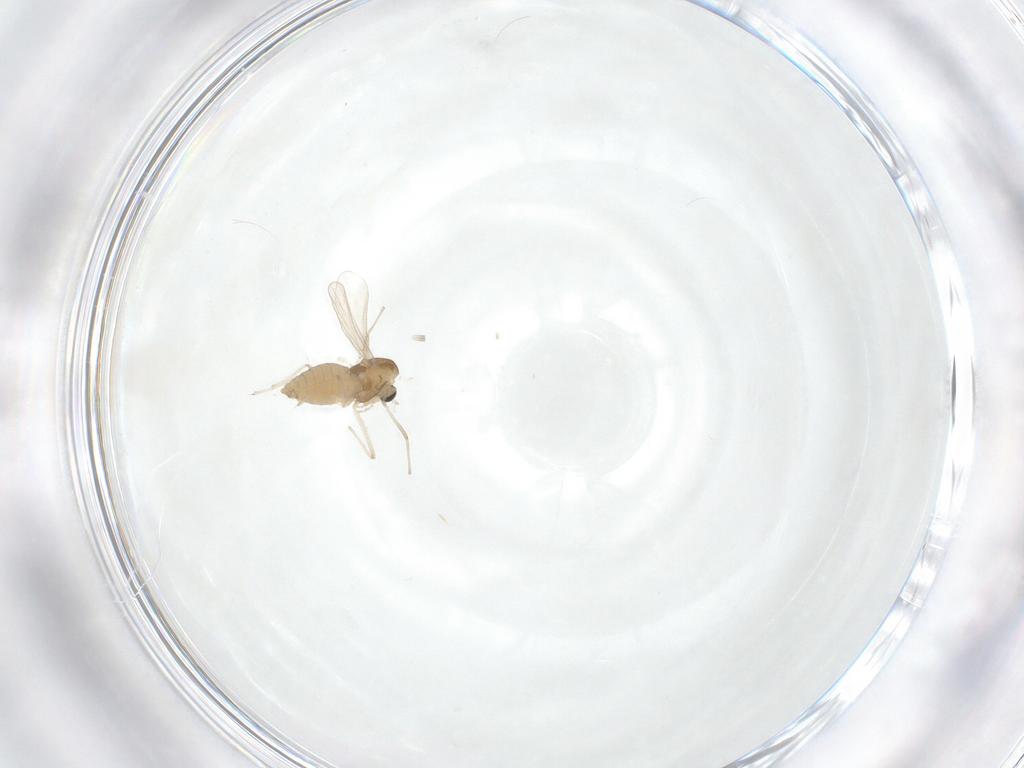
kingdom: Animalia
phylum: Arthropoda
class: Insecta
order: Diptera
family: Chironomidae
